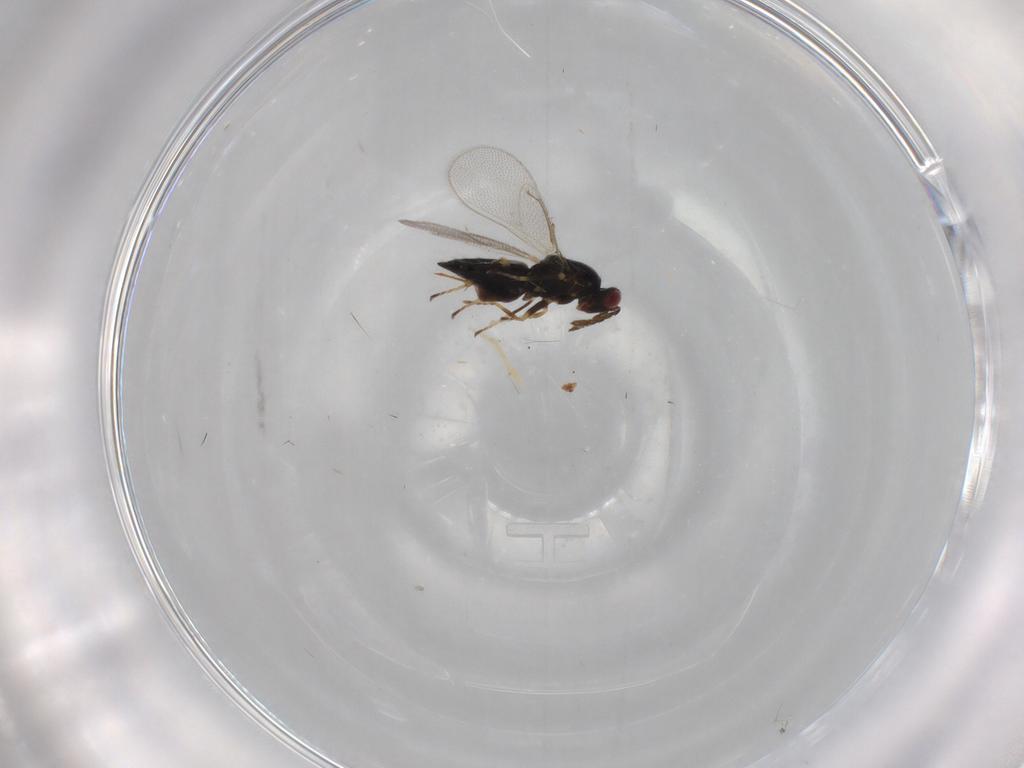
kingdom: Animalia
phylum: Arthropoda
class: Insecta
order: Hymenoptera
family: Eulophidae
